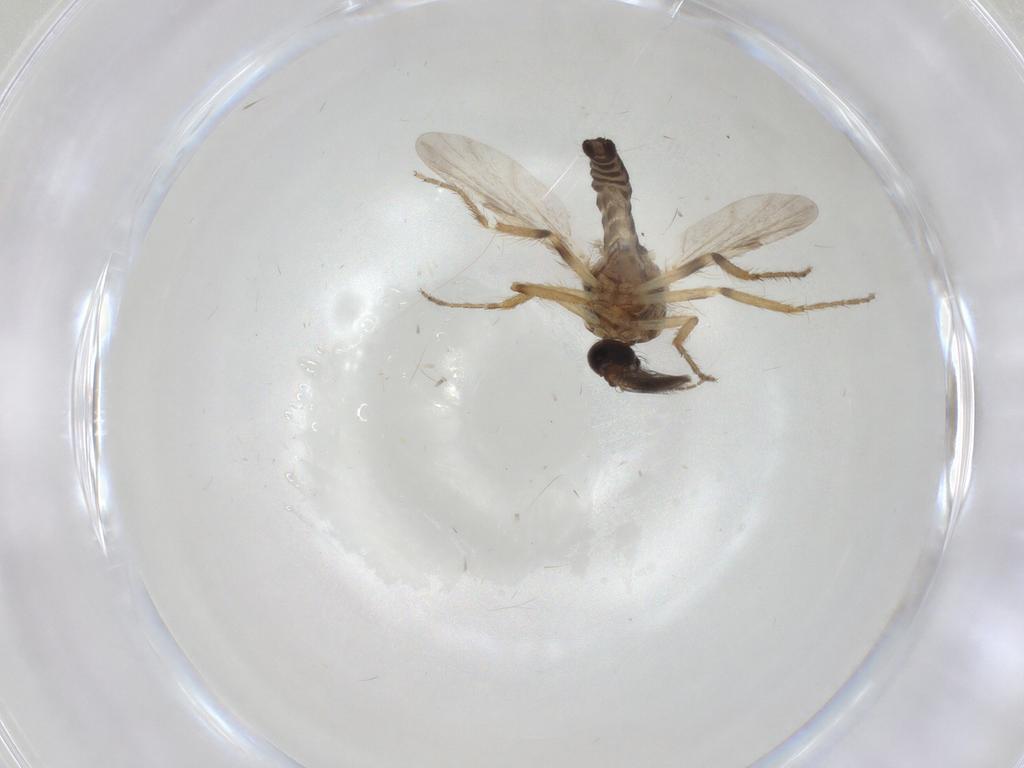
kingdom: Animalia
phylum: Arthropoda
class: Insecta
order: Diptera
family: Ceratopogonidae
